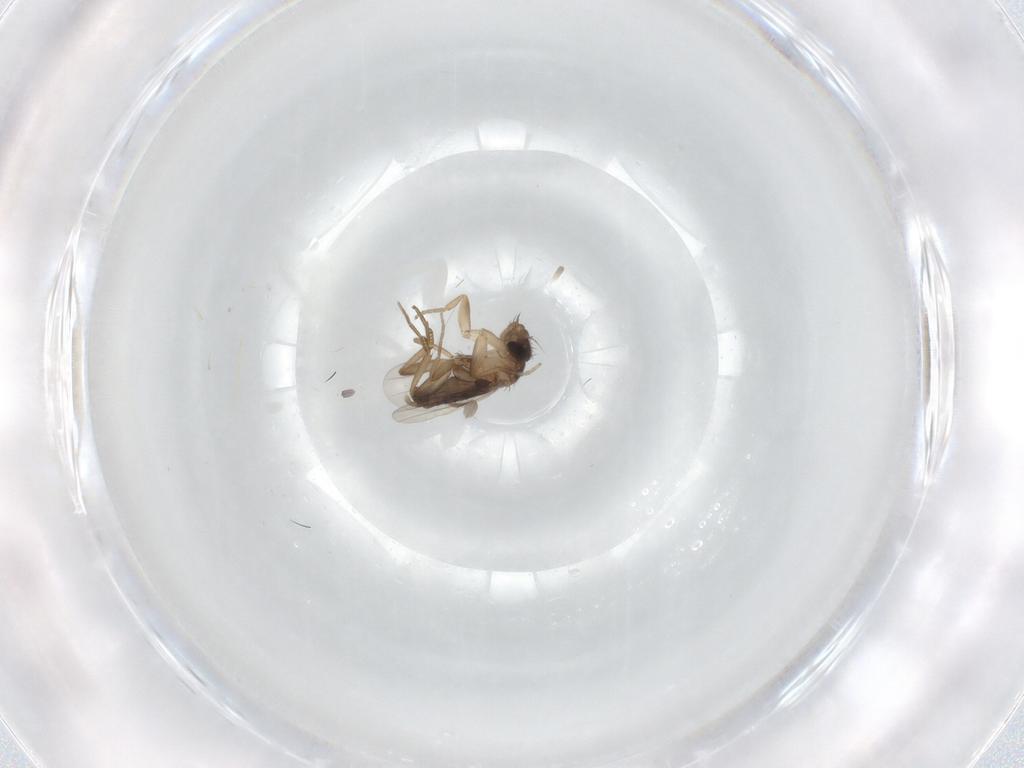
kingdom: Animalia
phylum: Arthropoda
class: Insecta
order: Diptera
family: Phoridae
